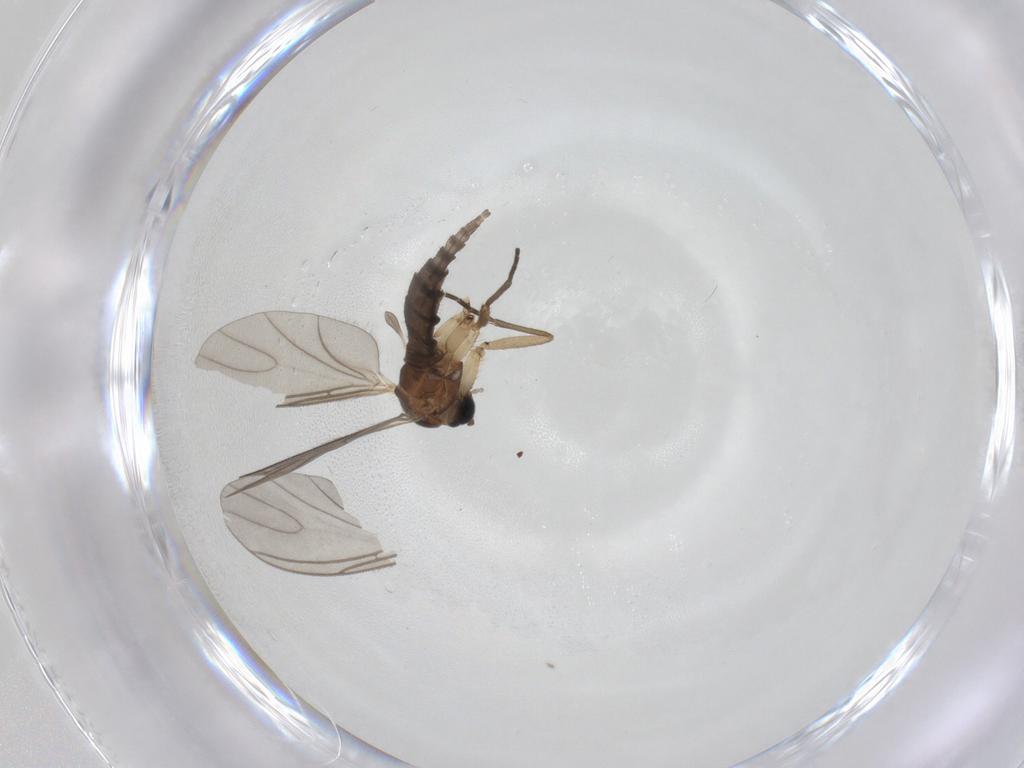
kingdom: Animalia
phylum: Arthropoda
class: Insecta
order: Diptera
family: Sciaridae
